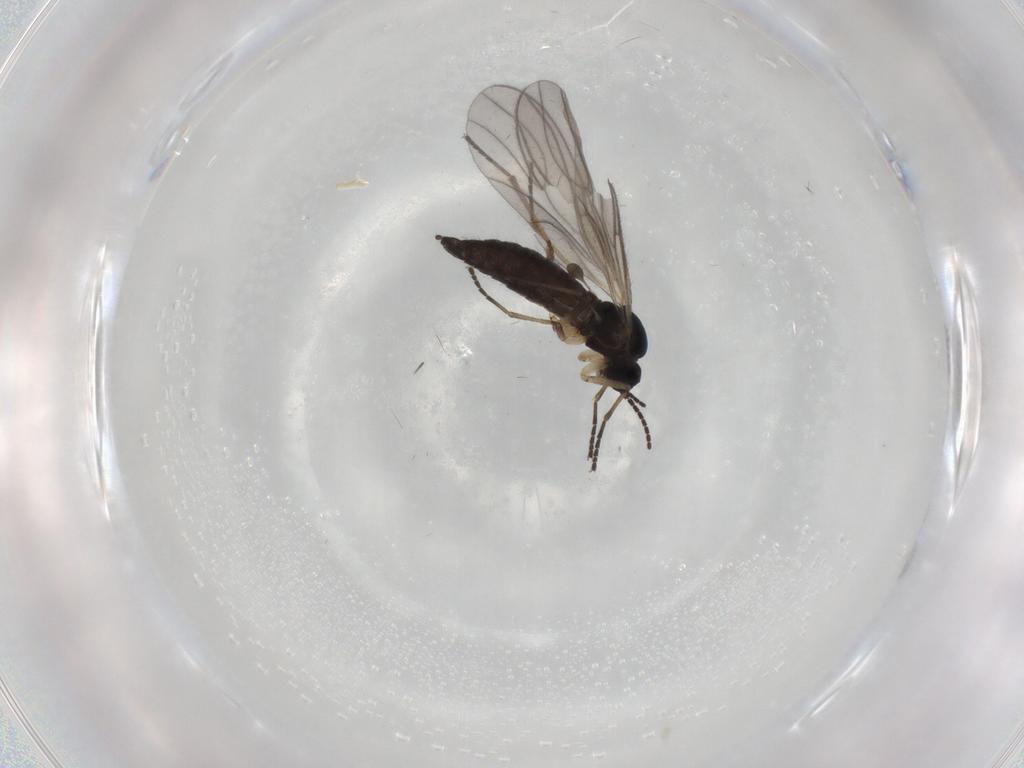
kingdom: Animalia
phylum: Arthropoda
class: Insecta
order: Diptera
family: Sciaridae
